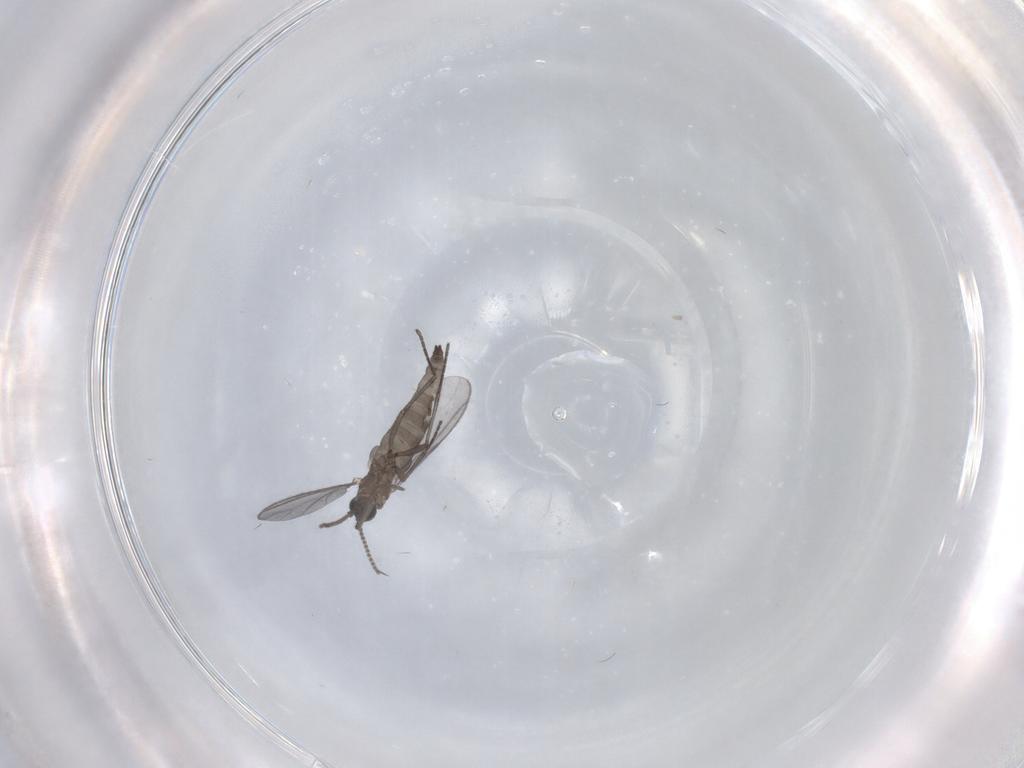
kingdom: Animalia
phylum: Arthropoda
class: Insecta
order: Diptera
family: Sciaridae
